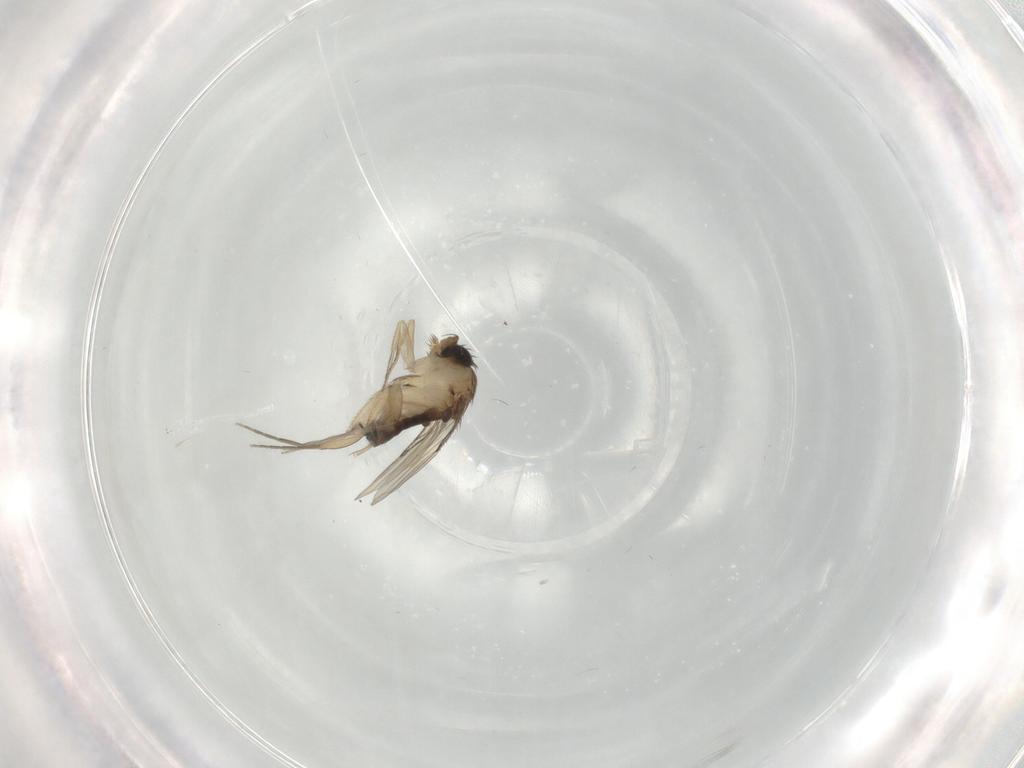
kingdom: Animalia
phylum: Arthropoda
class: Insecta
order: Diptera
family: Phoridae
